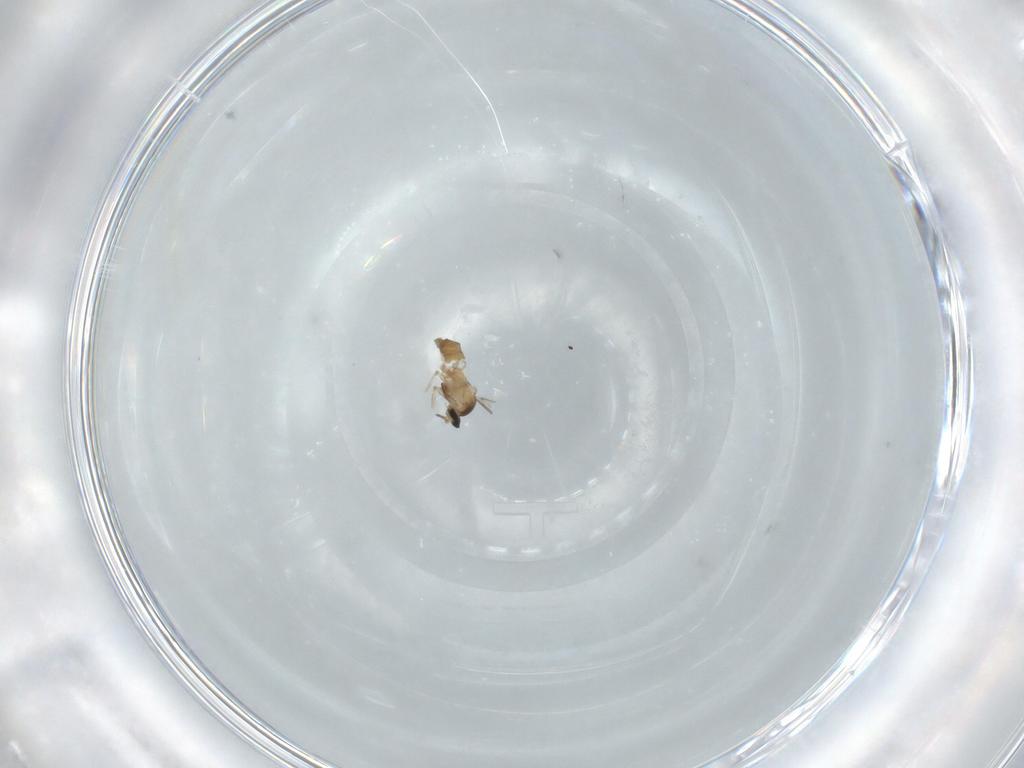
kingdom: Animalia
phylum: Arthropoda
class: Insecta
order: Diptera
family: Cecidomyiidae
